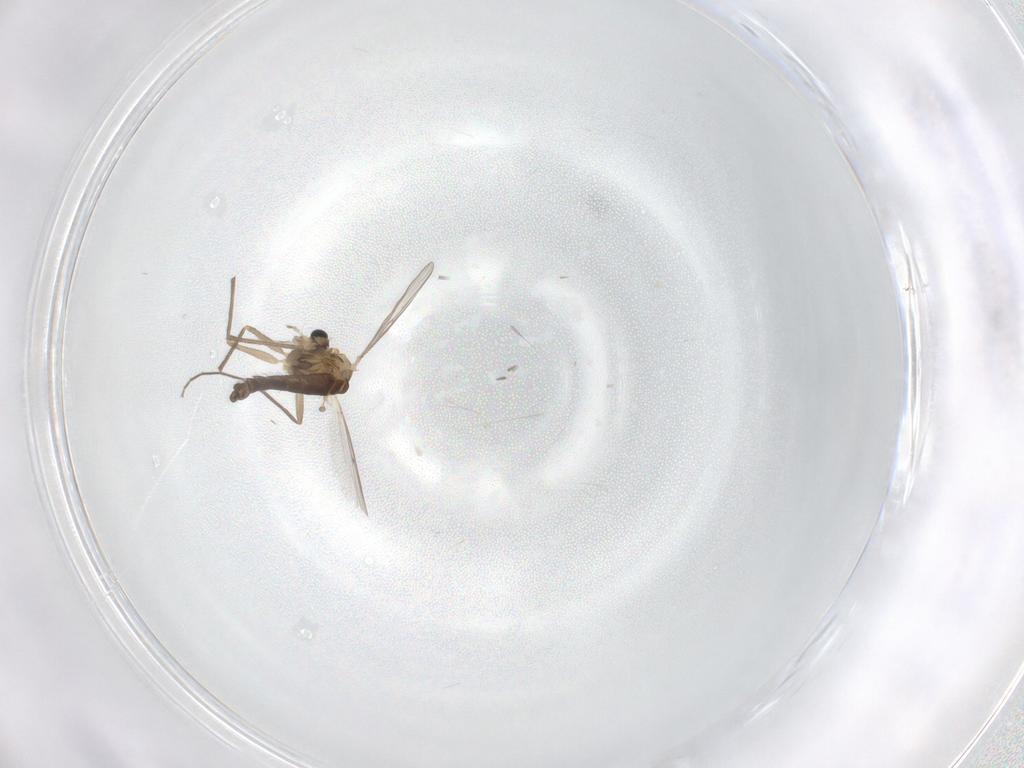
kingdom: Animalia
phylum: Arthropoda
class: Insecta
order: Diptera
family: Chironomidae
